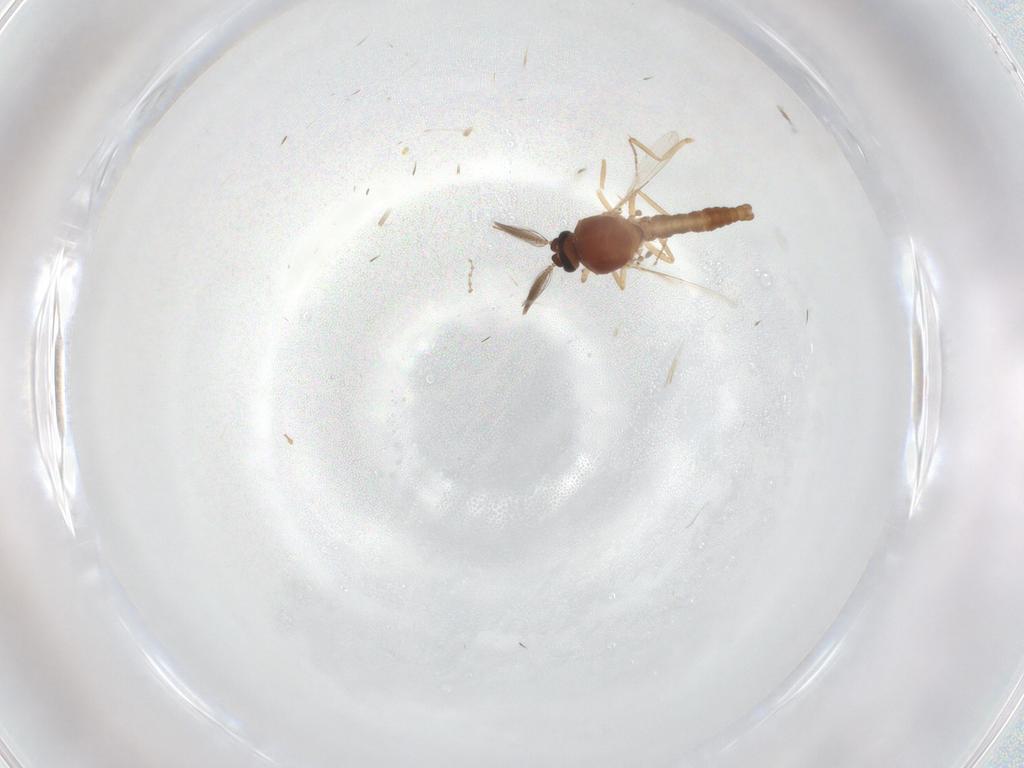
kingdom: Animalia
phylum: Arthropoda
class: Insecta
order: Diptera
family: Ceratopogonidae
